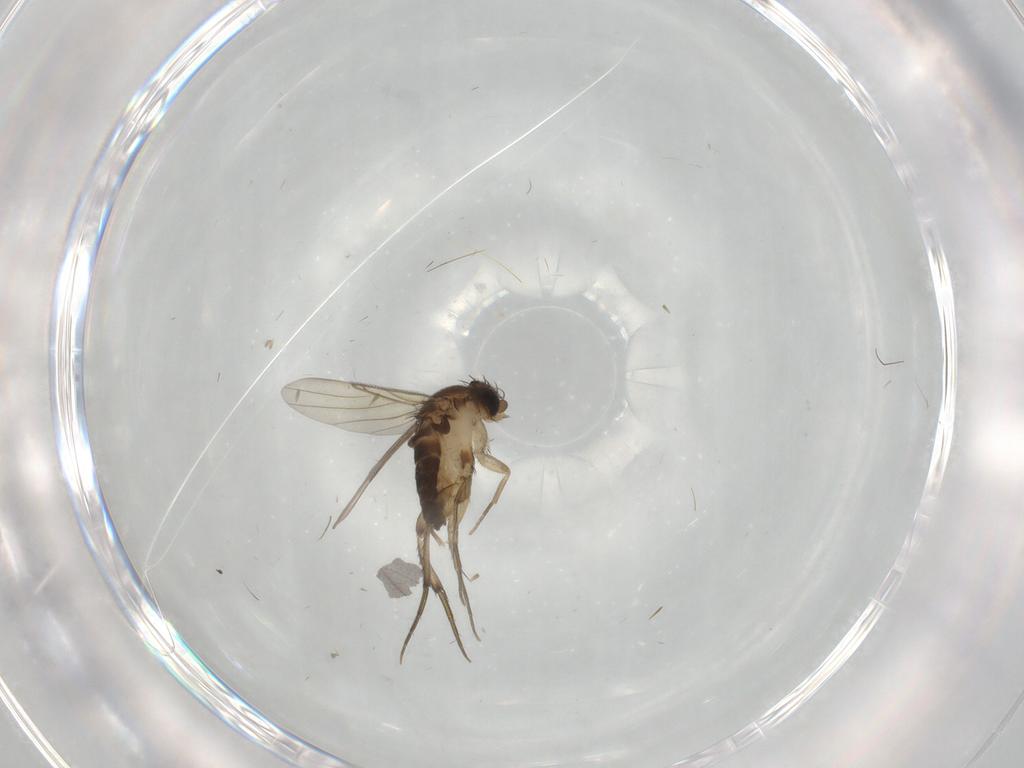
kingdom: Animalia
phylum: Arthropoda
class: Insecta
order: Diptera
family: Phoridae
